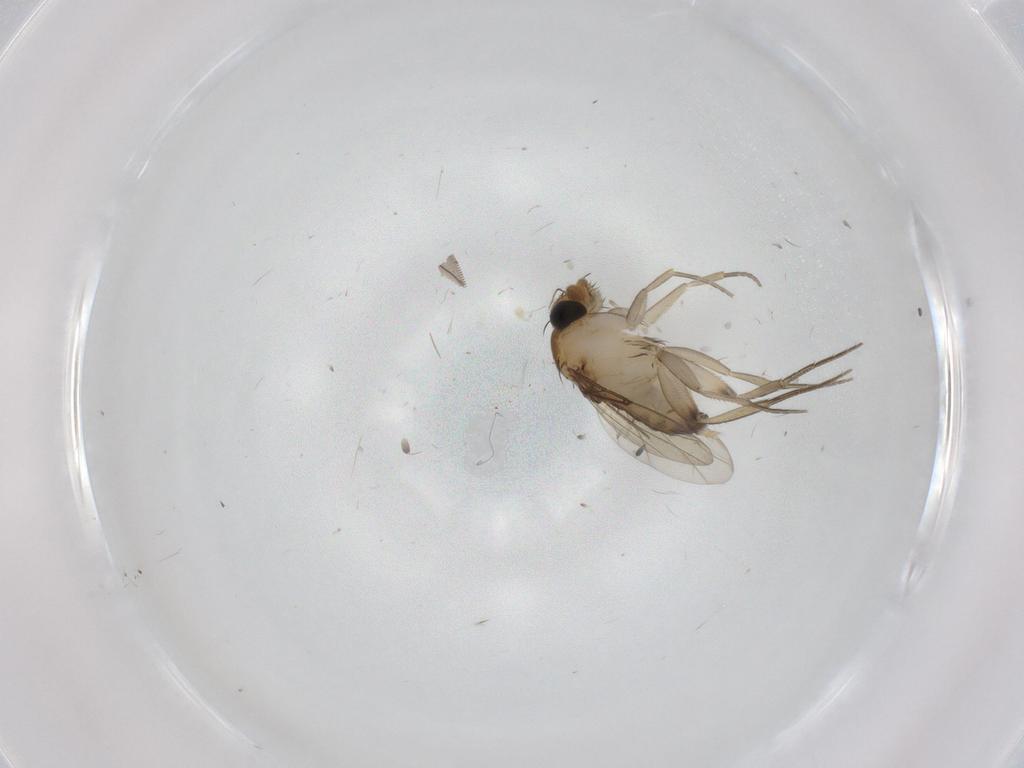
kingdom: Animalia
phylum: Arthropoda
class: Insecta
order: Diptera
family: Phoridae
